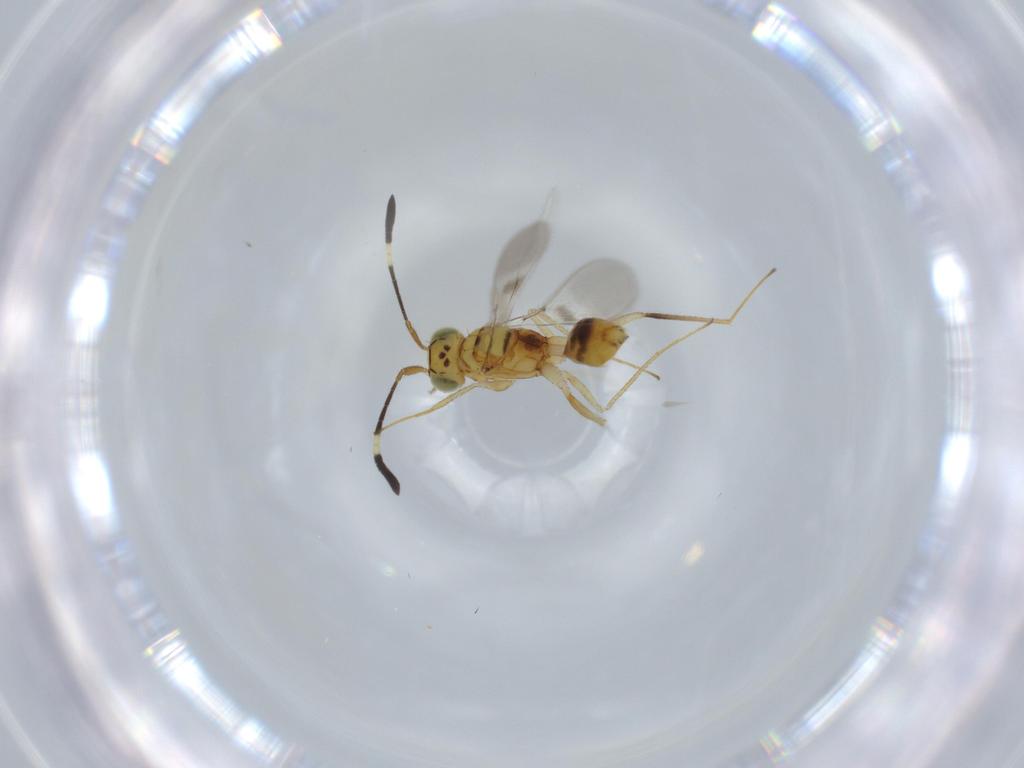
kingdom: Animalia
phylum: Arthropoda
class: Insecta
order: Hymenoptera
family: Mymaridae
